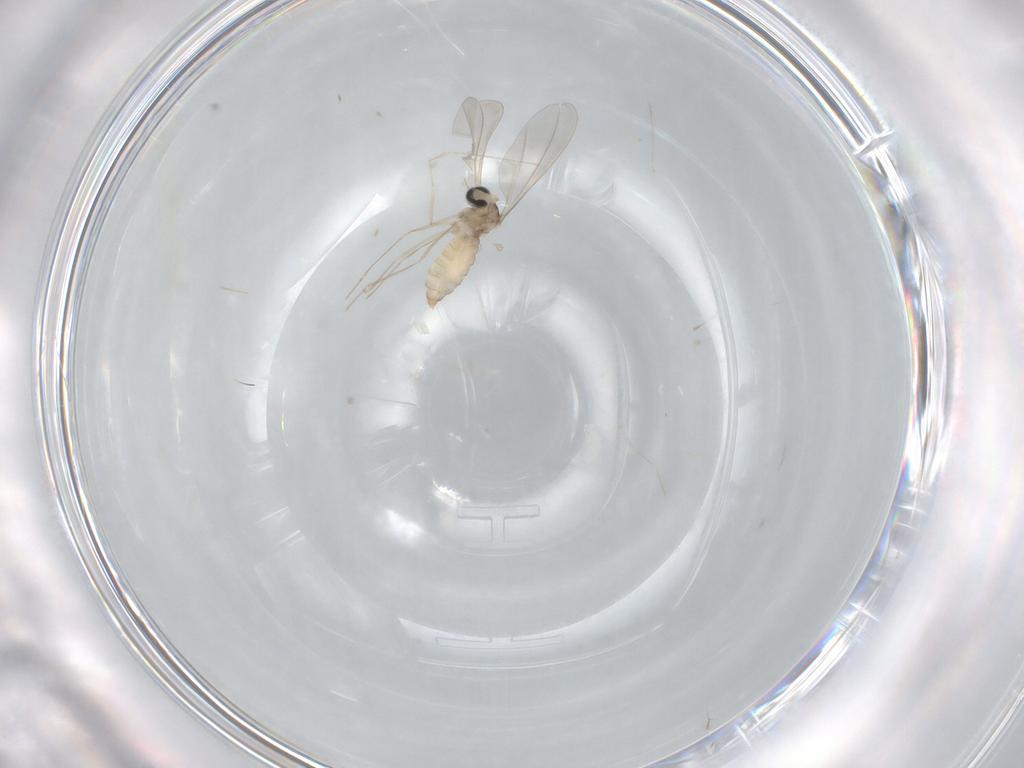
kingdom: Animalia
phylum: Arthropoda
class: Insecta
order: Diptera
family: Cecidomyiidae
